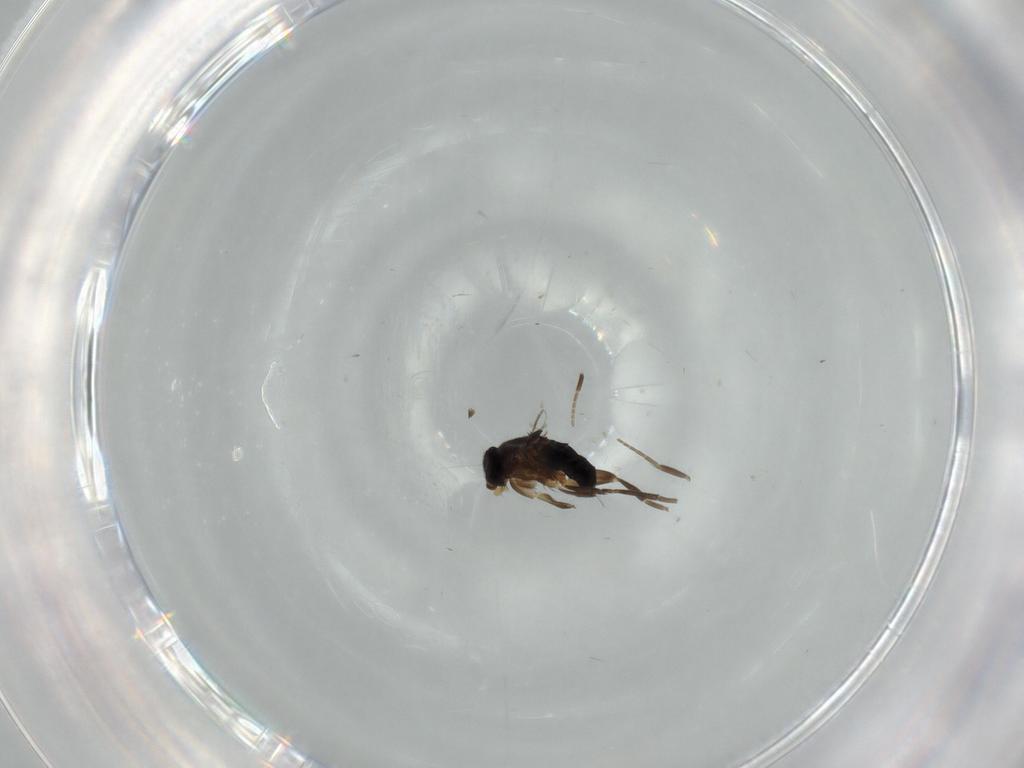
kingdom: Animalia
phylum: Arthropoda
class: Insecta
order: Diptera
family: Phoridae
